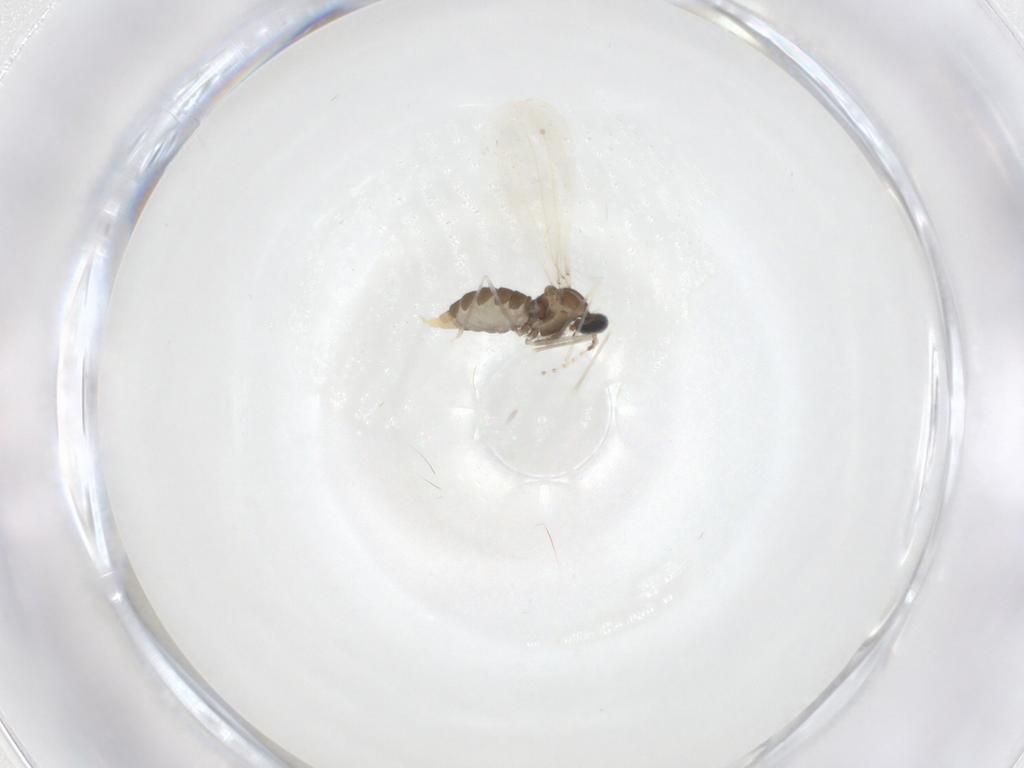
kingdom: Animalia
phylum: Arthropoda
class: Insecta
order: Diptera
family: Cecidomyiidae
